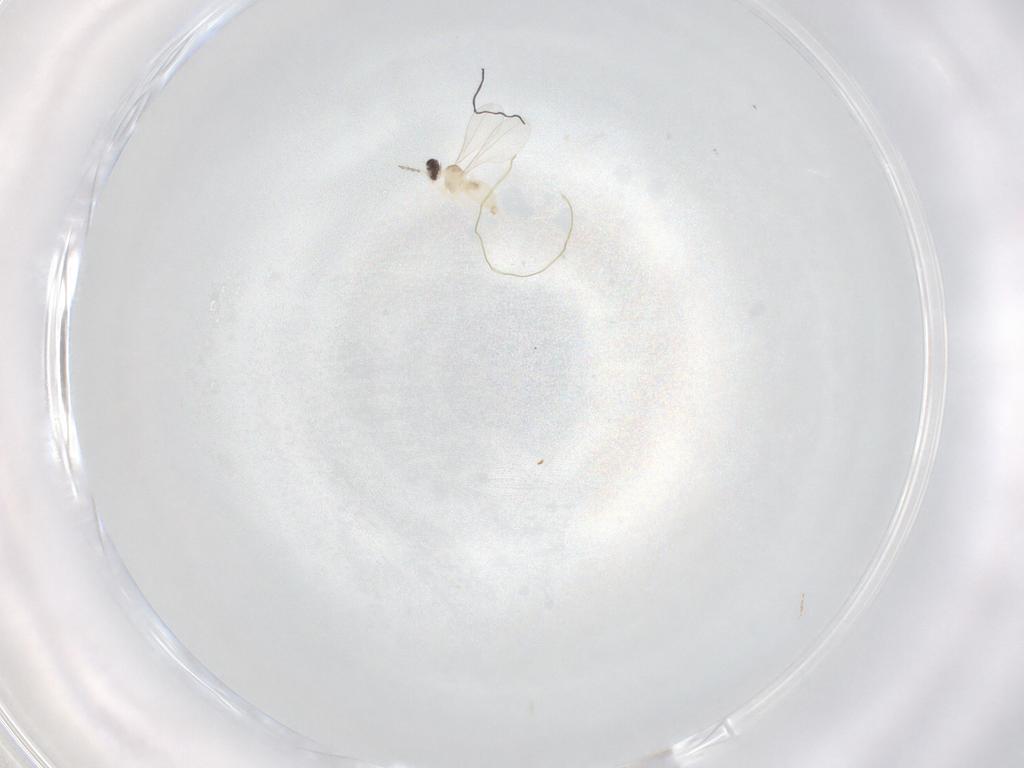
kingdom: Animalia
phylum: Arthropoda
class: Insecta
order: Diptera
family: Cecidomyiidae
